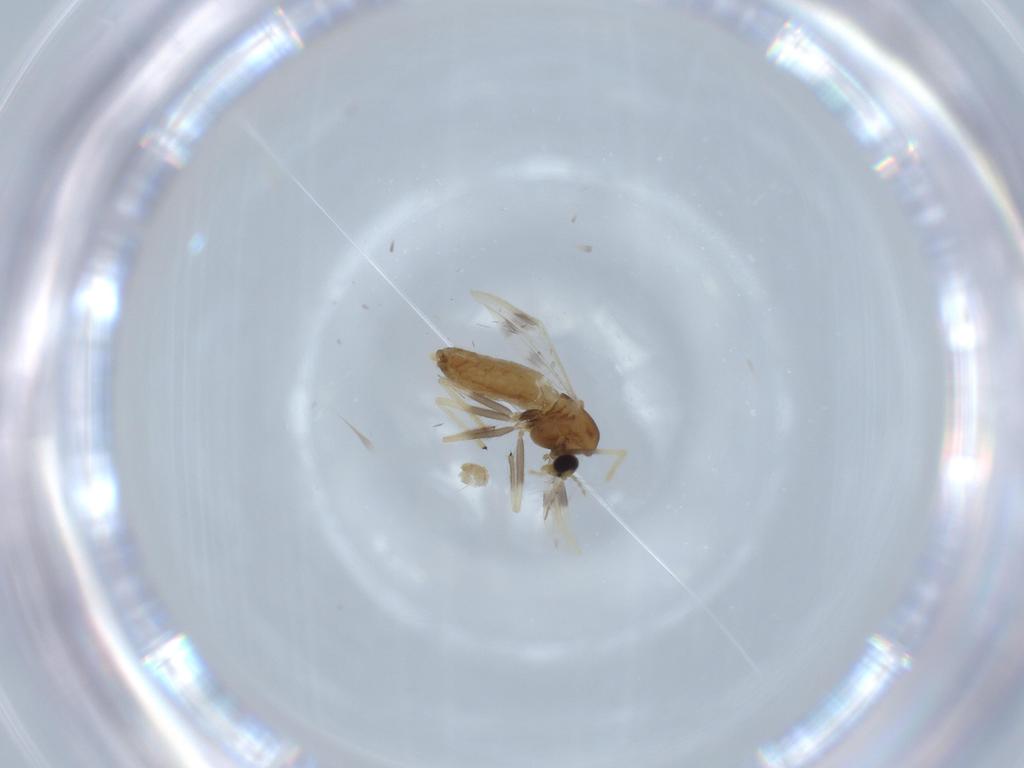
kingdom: Animalia
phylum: Arthropoda
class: Insecta
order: Diptera
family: Chironomidae
